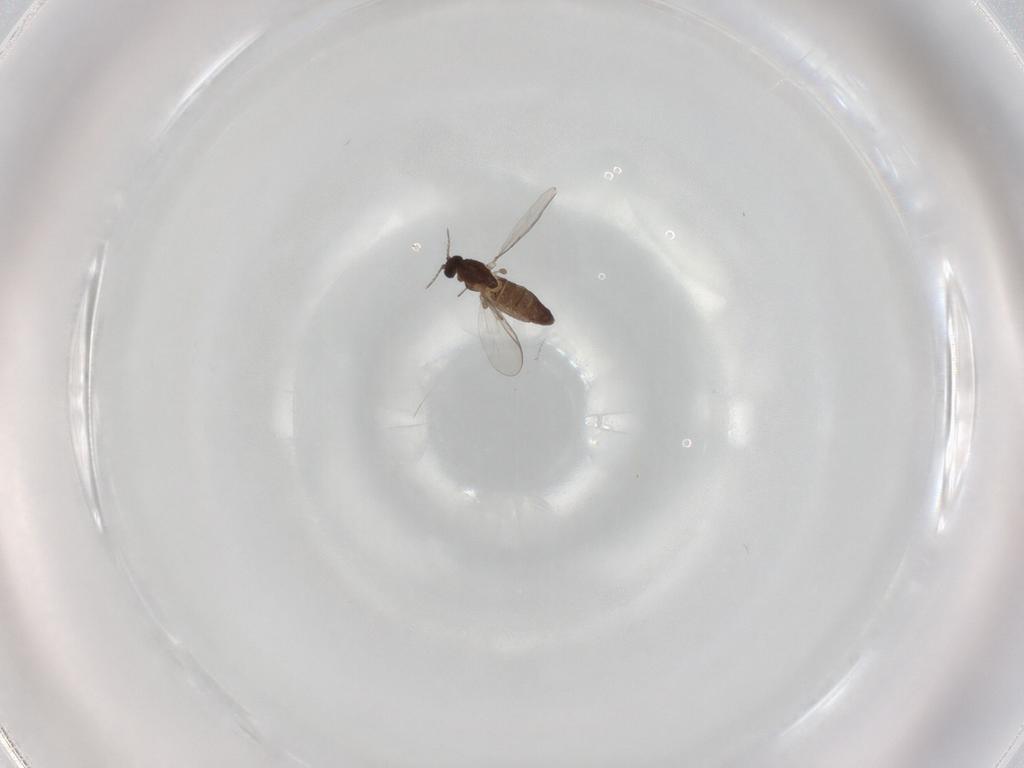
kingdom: Animalia
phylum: Arthropoda
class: Insecta
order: Diptera
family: Chironomidae
